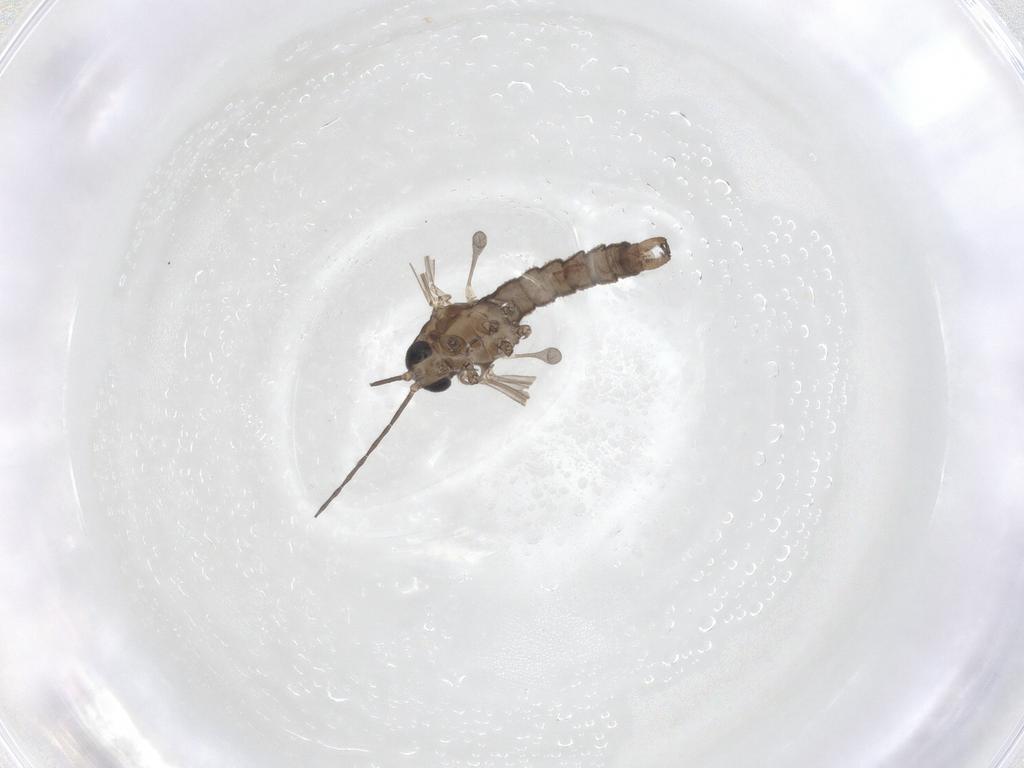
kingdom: Animalia
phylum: Arthropoda
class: Insecta
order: Diptera
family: Limoniidae
